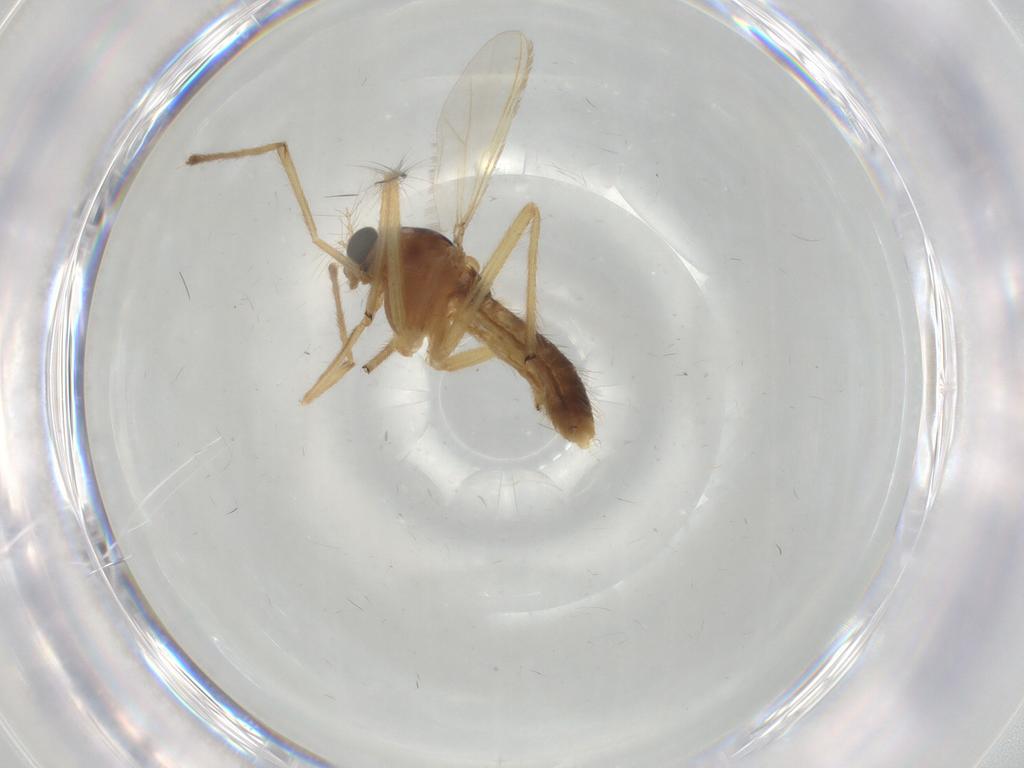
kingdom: Animalia
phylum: Arthropoda
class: Insecta
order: Diptera
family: Chironomidae
